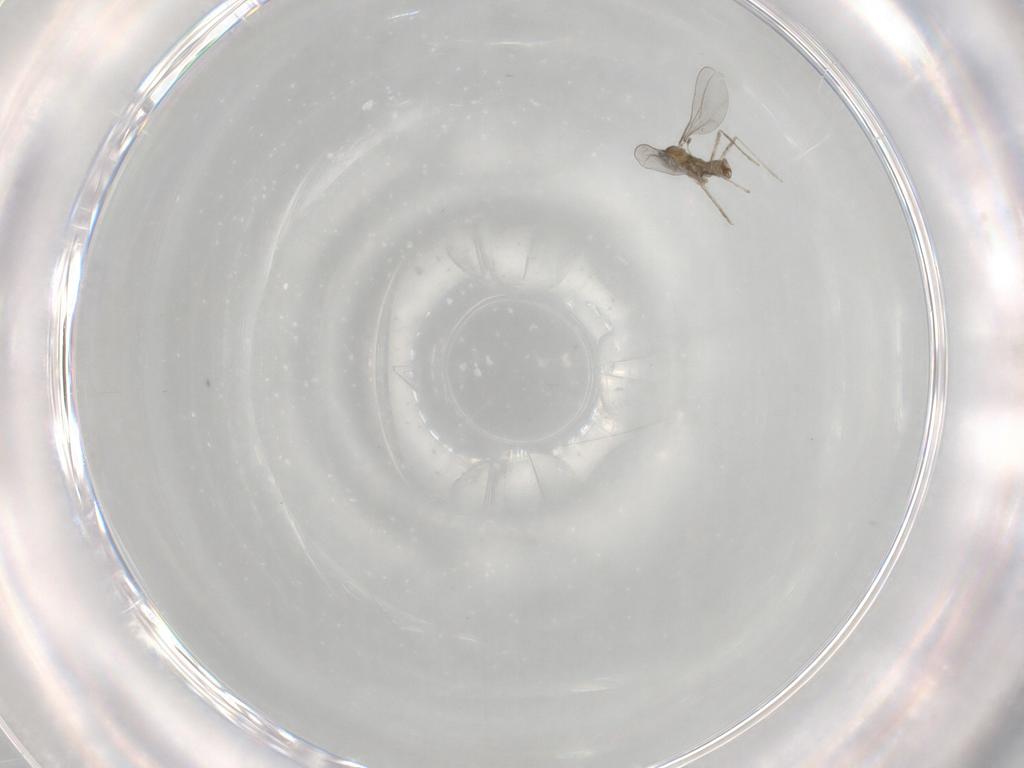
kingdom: Animalia
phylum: Arthropoda
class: Insecta
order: Diptera
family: Cecidomyiidae
